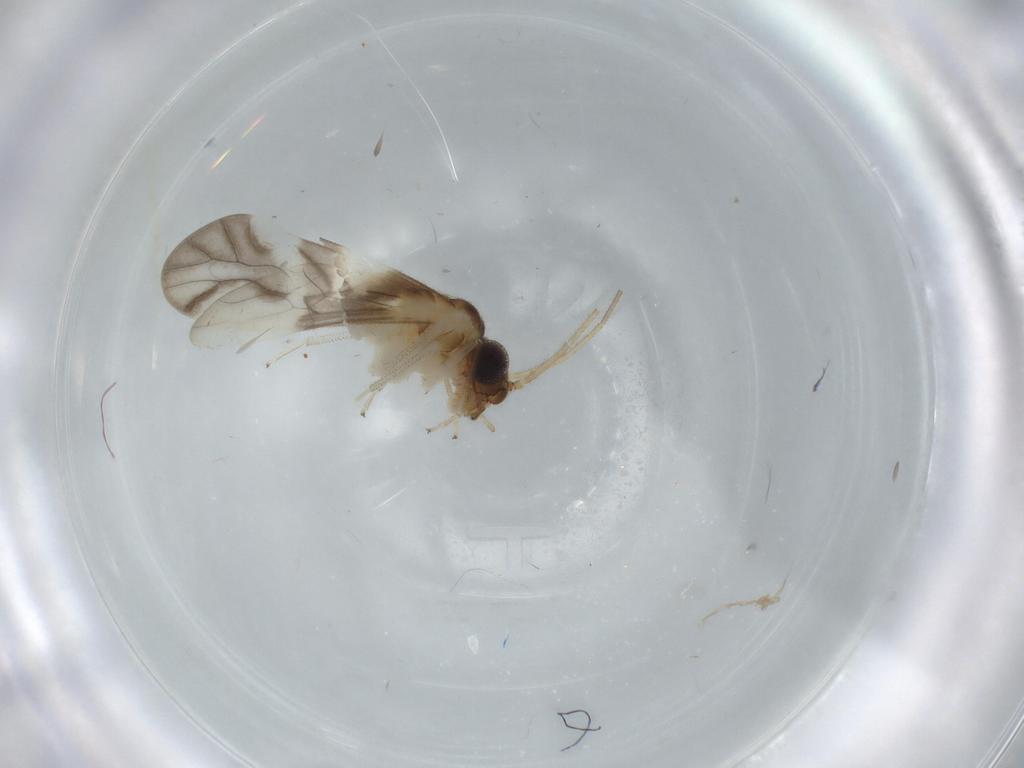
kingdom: Animalia
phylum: Arthropoda
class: Insecta
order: Psocodea
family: Caeciliusidae
